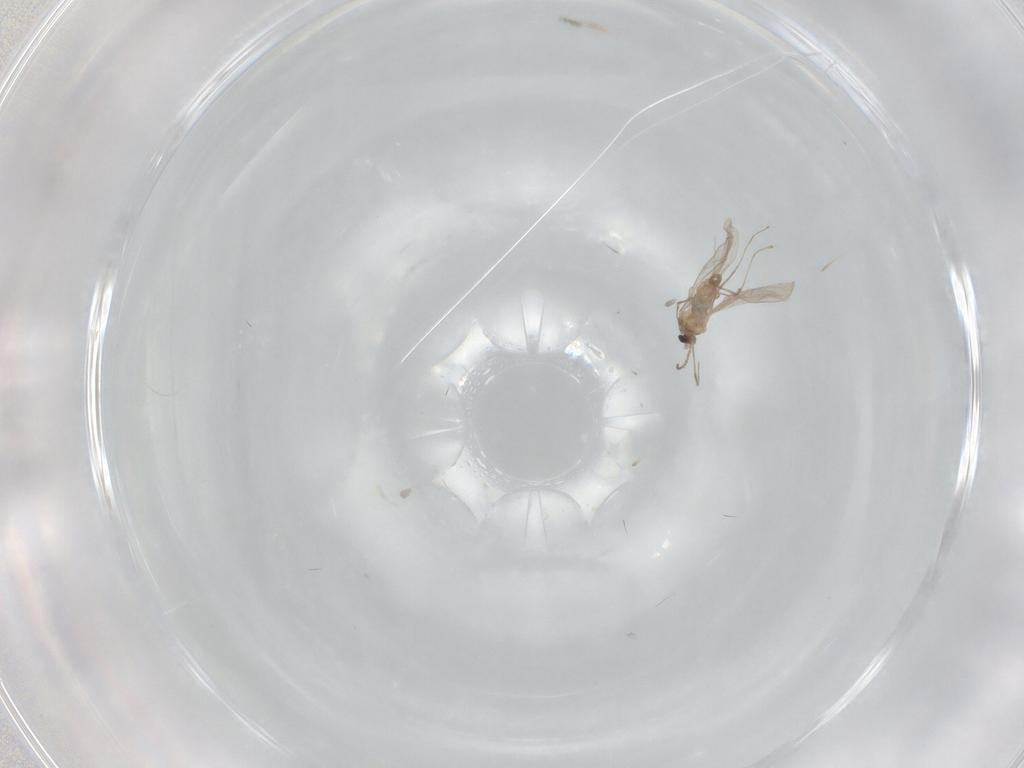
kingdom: Animalia
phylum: Arthropoda
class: Insecta
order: Diptera
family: Cecidomyiidae
